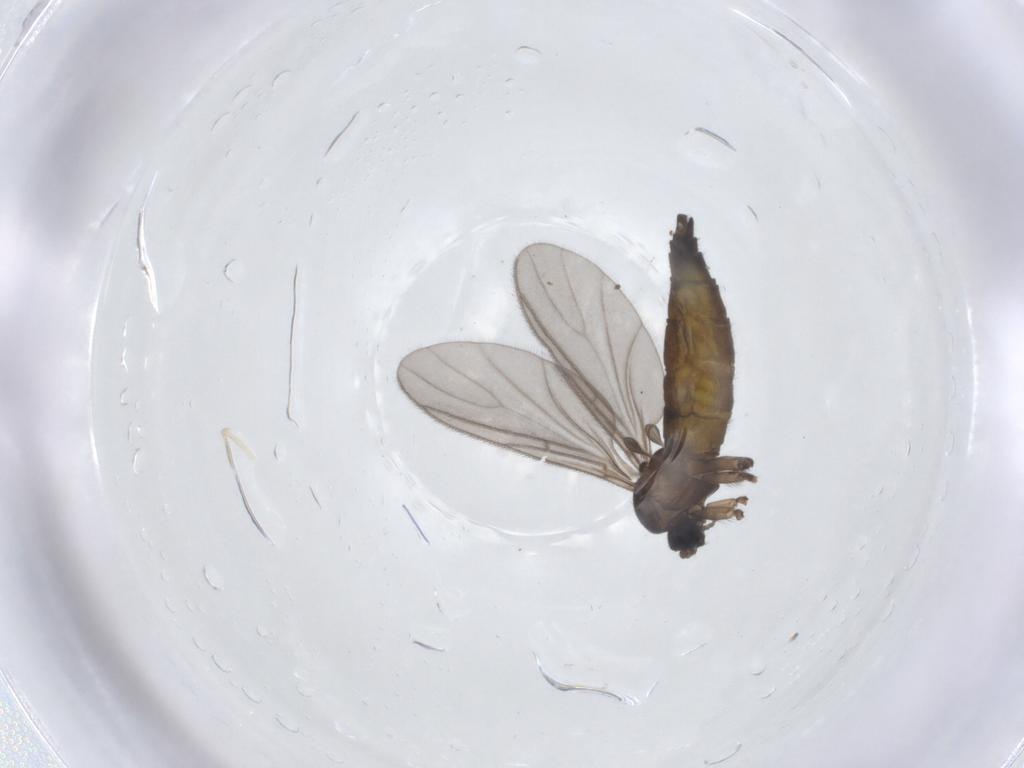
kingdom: Animalia
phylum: Arthropoda
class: Insecta
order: Diptera
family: Sciaridae
